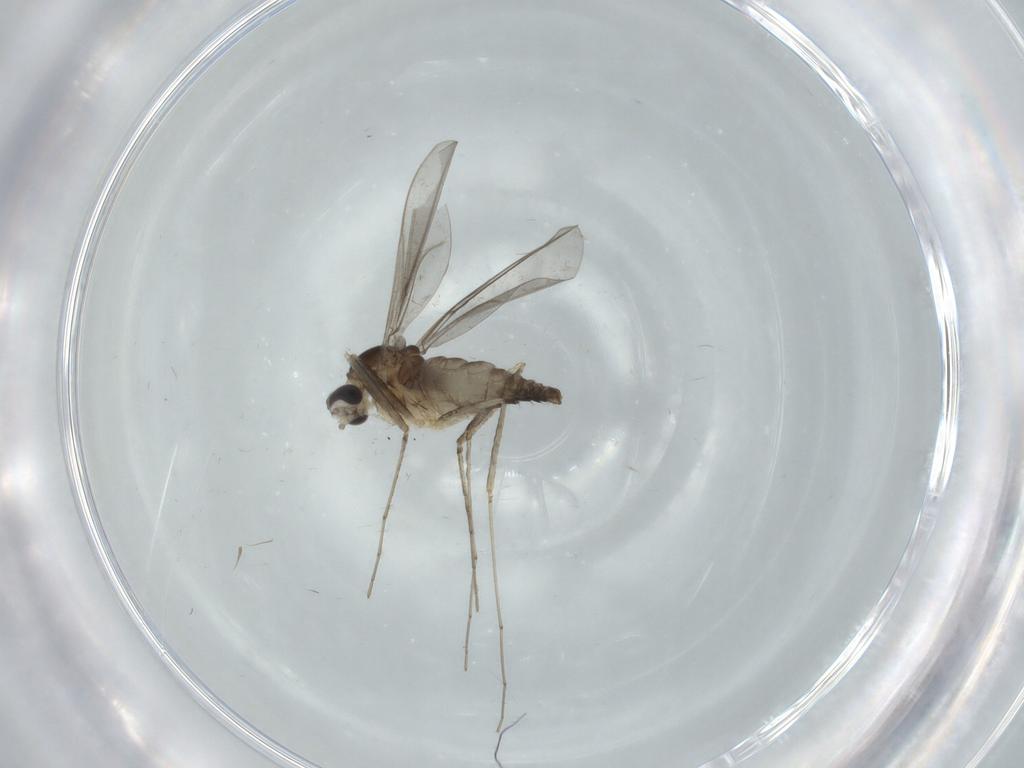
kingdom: Animalia
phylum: Arthropoda
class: Insecta
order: Diptera
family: Cecidomyiidae
